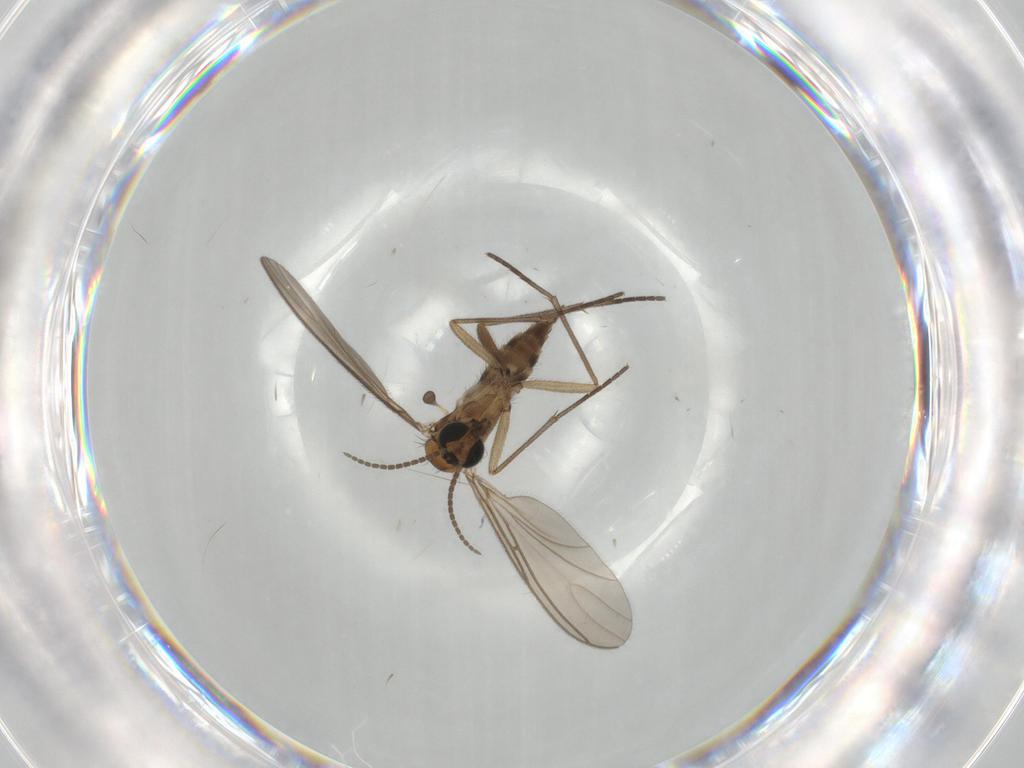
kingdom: Animalia
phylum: Arthropoda
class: Insecta
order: Diptera
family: Sciaridae
